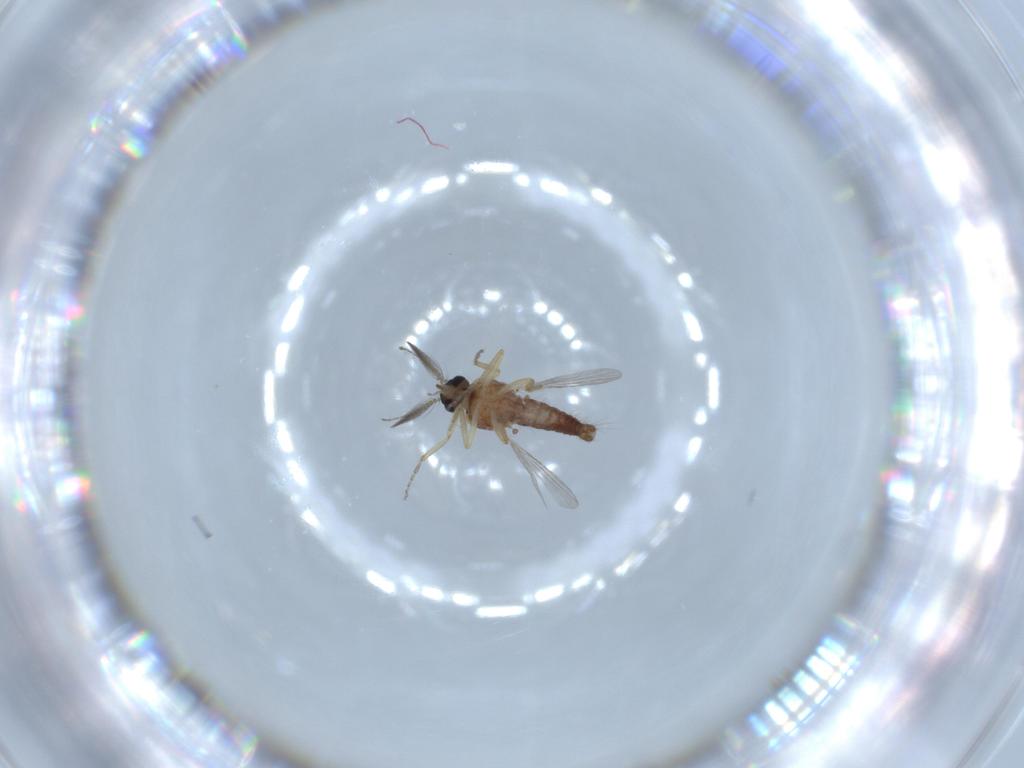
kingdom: Animalia
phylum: Arthropoda
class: Insecta
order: Diptera
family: Ceratopogonidae
